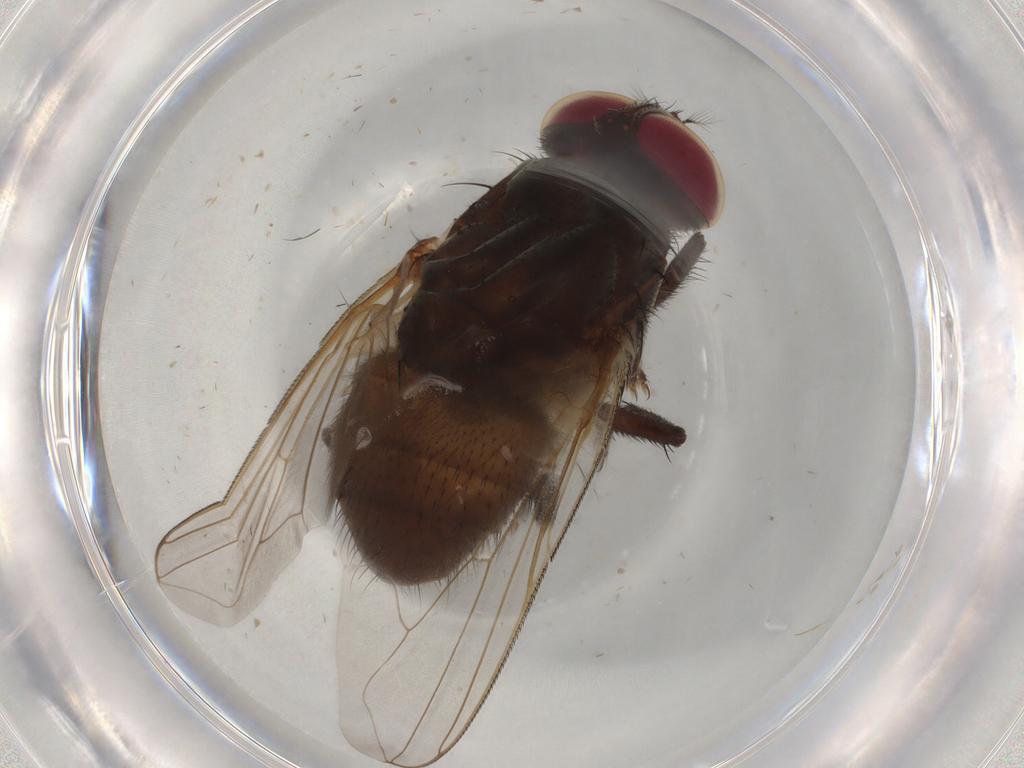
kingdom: Animalia
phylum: Arthropoda
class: Insecta
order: Diptera
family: Muscidae
